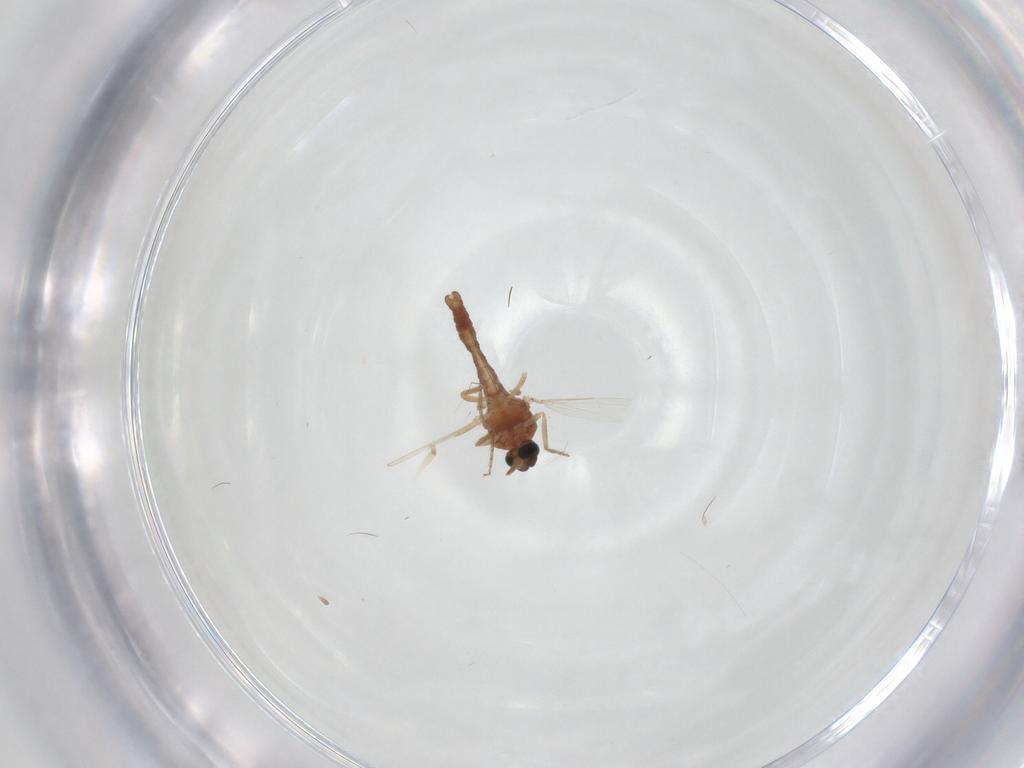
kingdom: Animalia
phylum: Arthropoda
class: Insecta
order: Diptera
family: Ceratopogonidae
